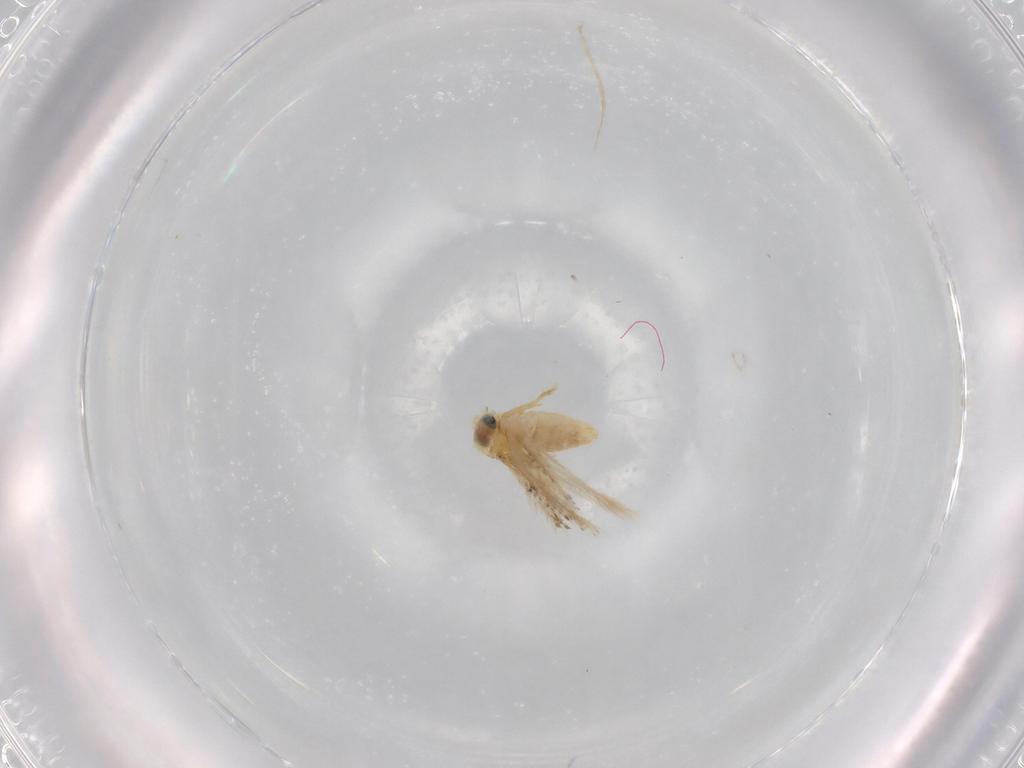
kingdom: Animalia
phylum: Arthropoda
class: Insecta
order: Lepidoptera
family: Nepticulidae
